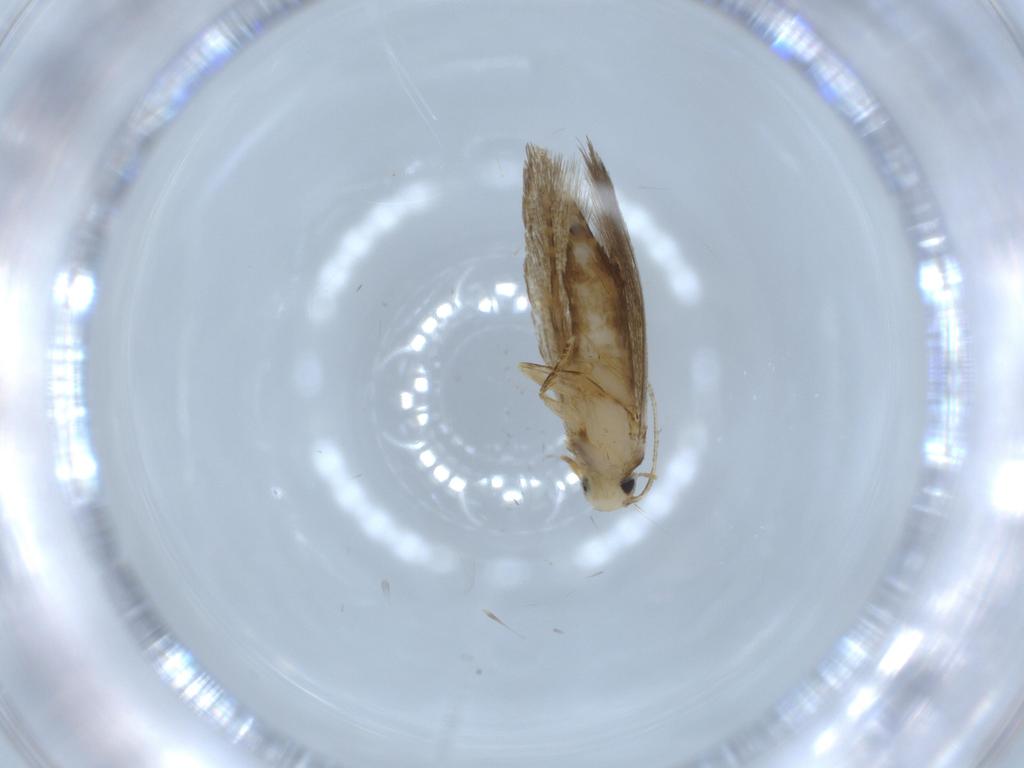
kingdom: Animalia
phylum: Arthropoda
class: Insecta
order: Lepidoptera
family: Tineidae
